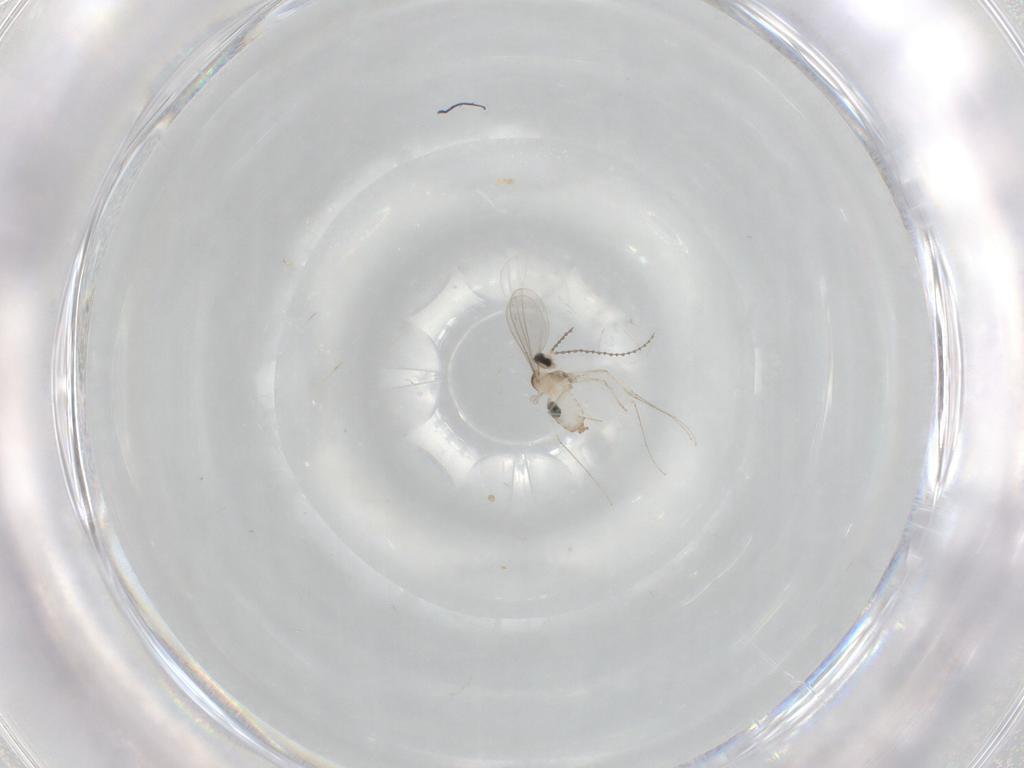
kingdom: Animalia
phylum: Arthropoda
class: Insecta
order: Diptera
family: Cecidomyiidae
